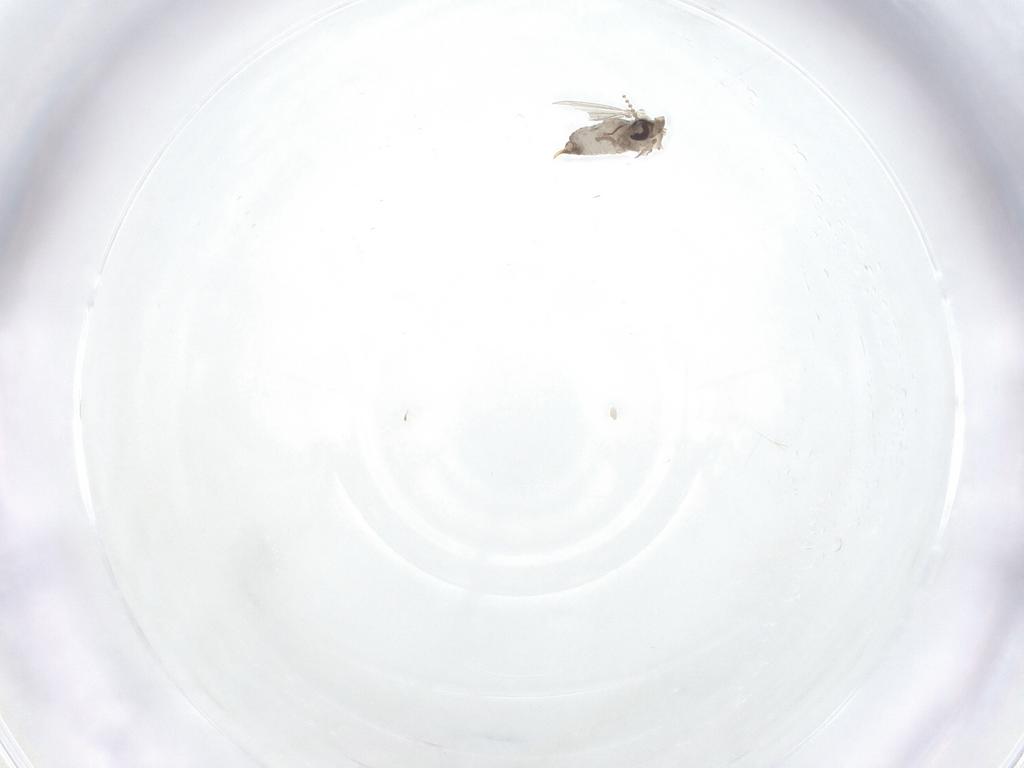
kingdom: Animalia
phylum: Arthropoda
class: Insecta
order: Diptera
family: Psychodidae
